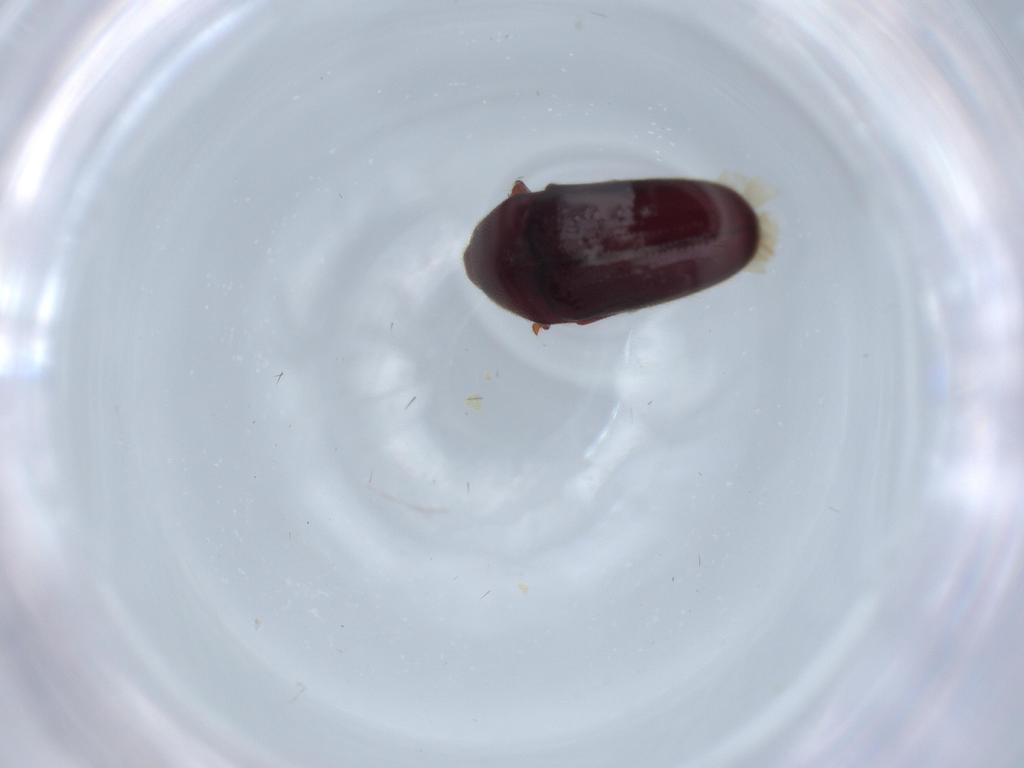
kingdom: Animalia
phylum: Arthropoda
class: Insecta
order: Coleoptera
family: Throscidae
